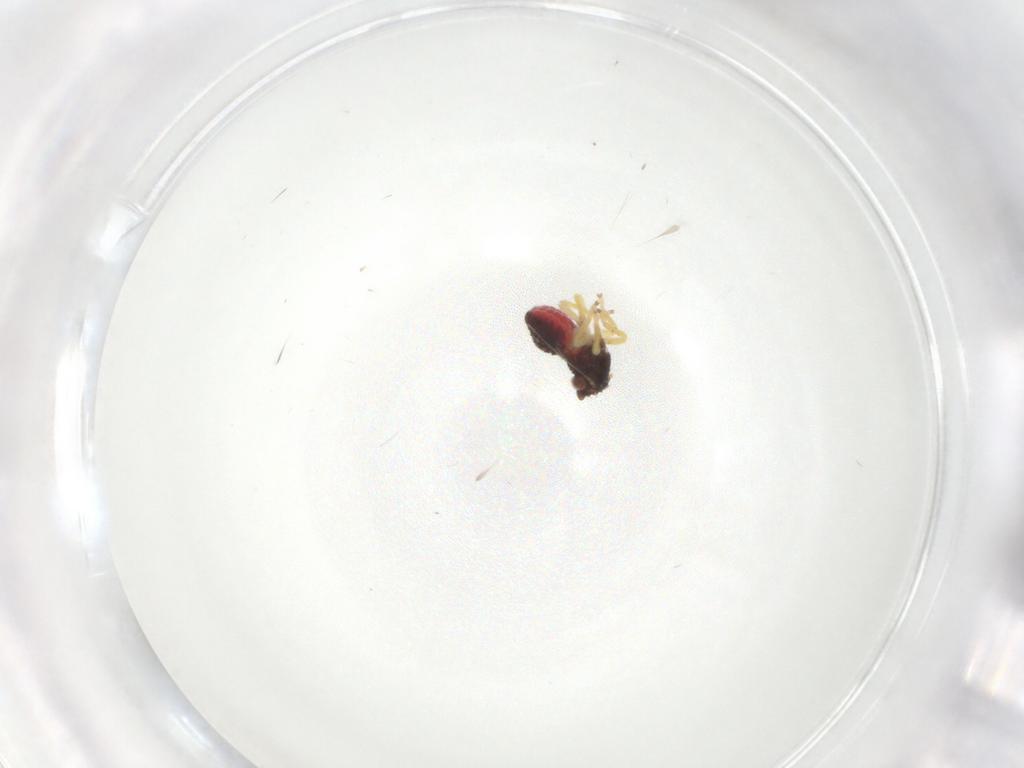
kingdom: Animalia
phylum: Arthropoda
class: Insecta
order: Hemiptera
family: Cicadellidae
